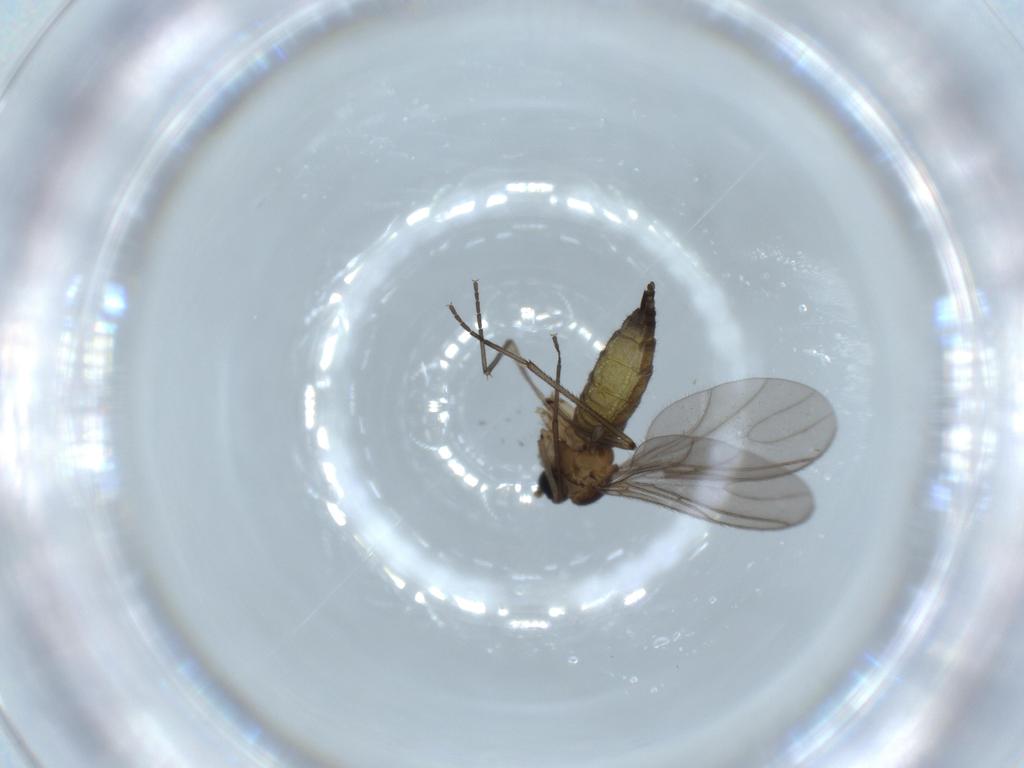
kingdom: Animalia
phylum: Arthropoda
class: Insecta
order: Diptera
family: Sciaridae
